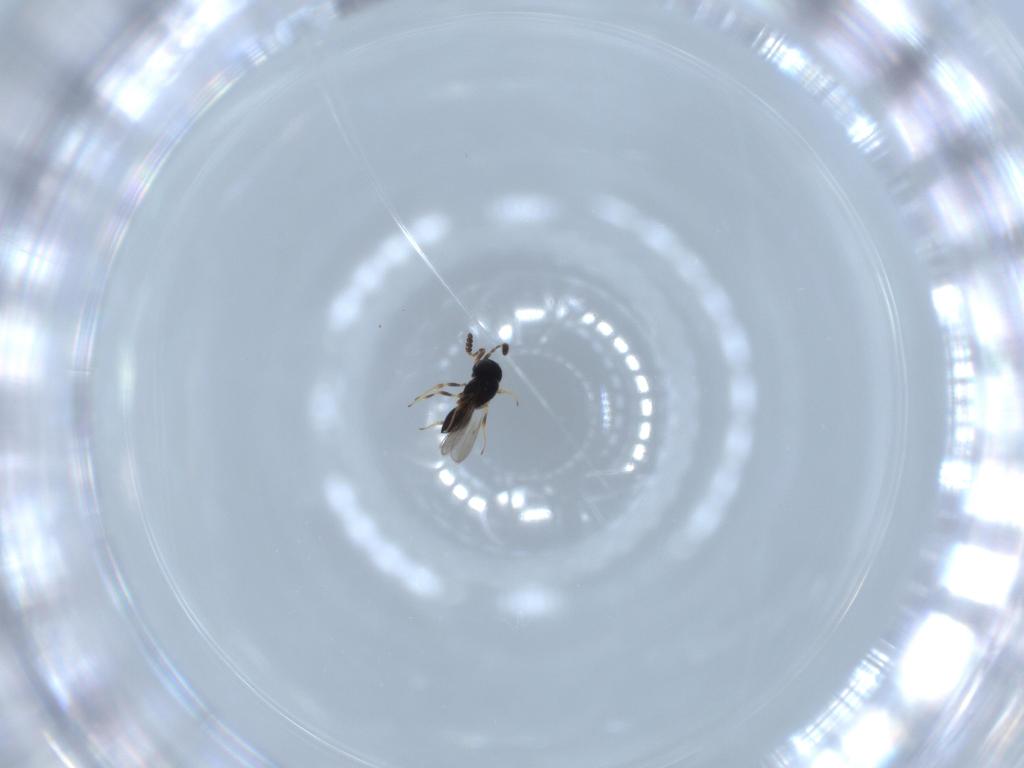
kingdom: Animalia
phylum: Arthropoda
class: Insecta
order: Hymenoptera
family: Scelionidae
